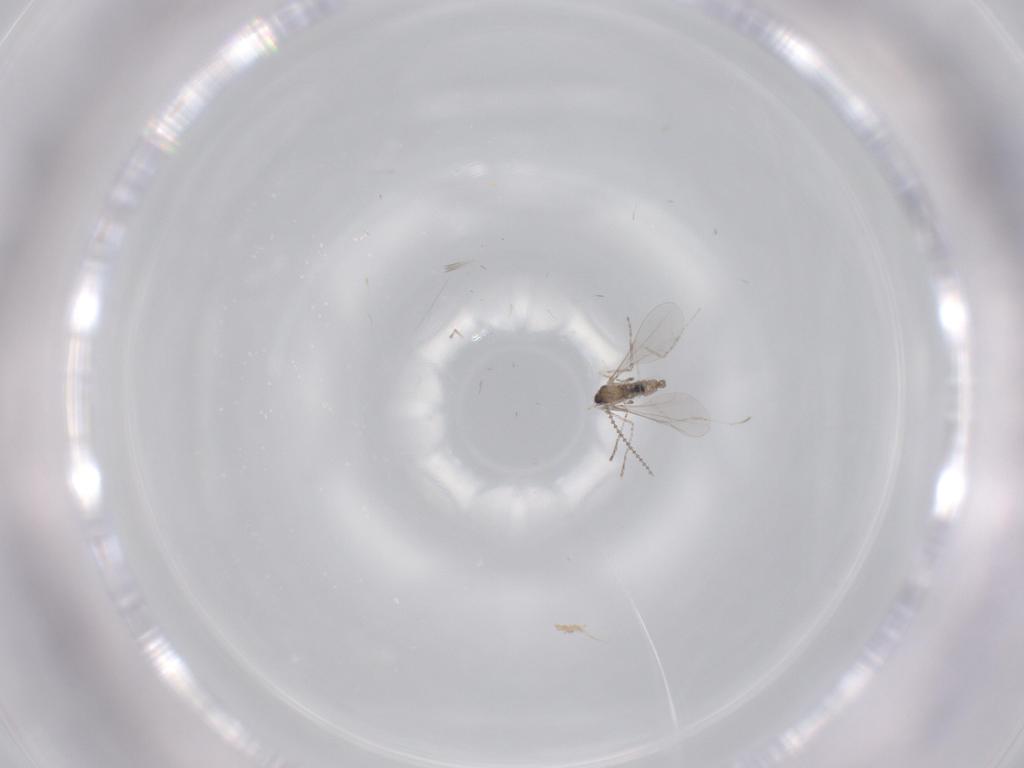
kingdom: Animalia
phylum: Arthropoda
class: Insecta
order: Diptera
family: Cecidomyiidae
